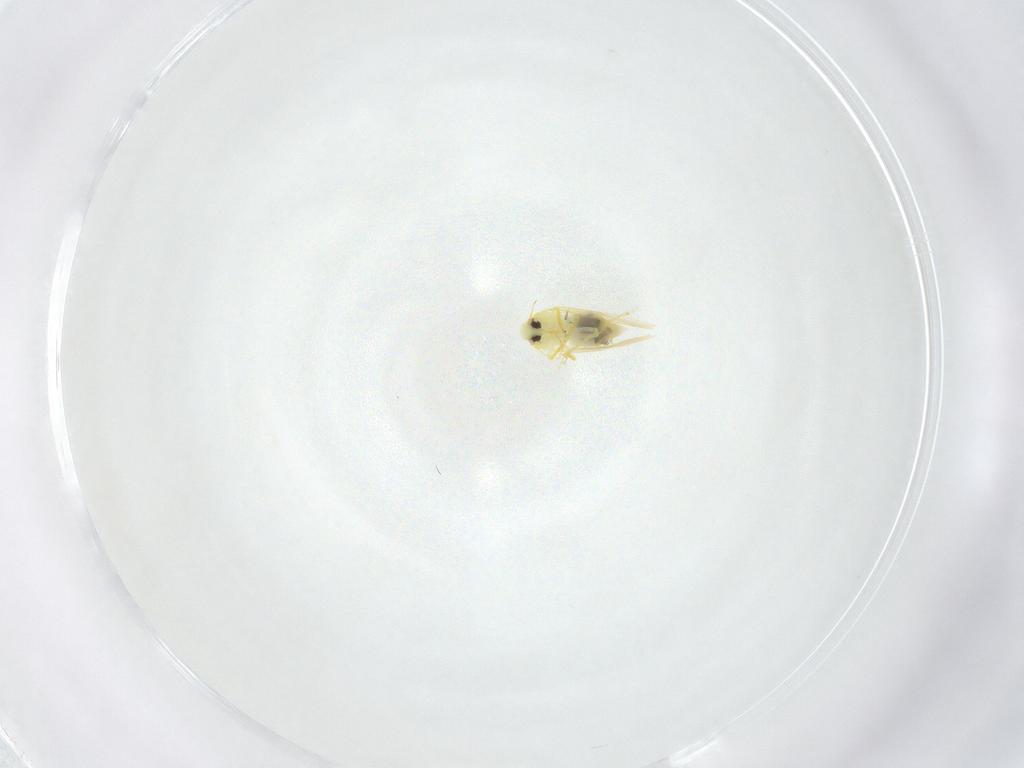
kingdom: Animalia
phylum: Arthropoda
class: Insecta
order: Hemiptera
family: Aleyrodidae
